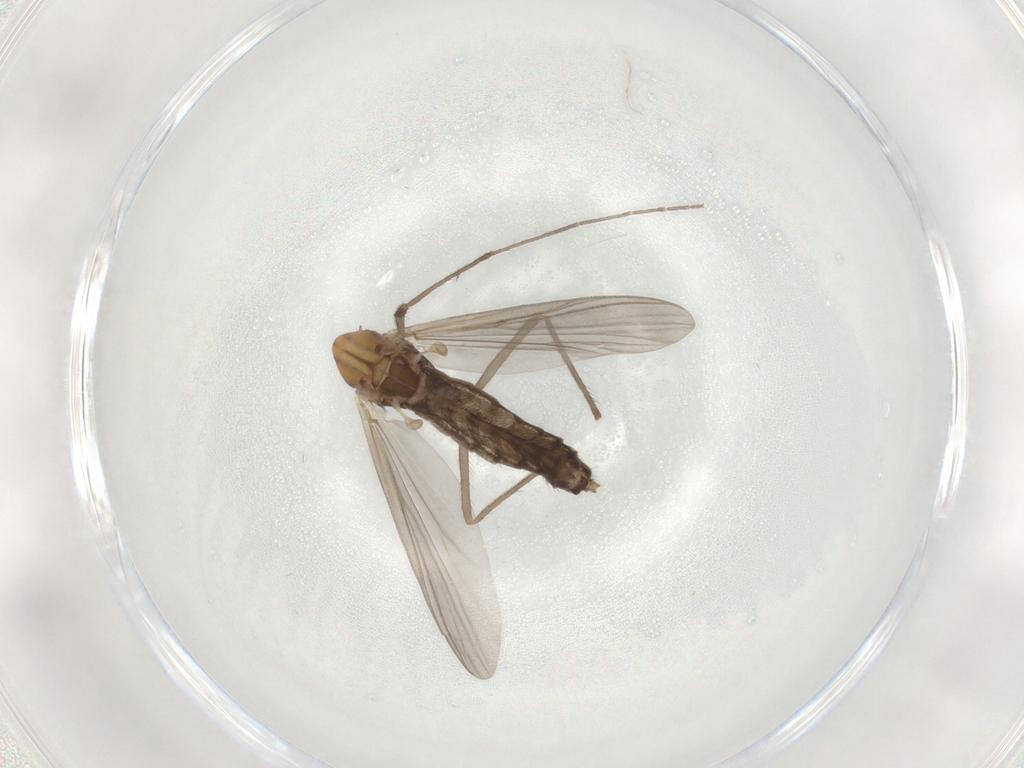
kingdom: Animalia
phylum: Arthropoda
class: Insecta
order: Diptera
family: Chironomidae
